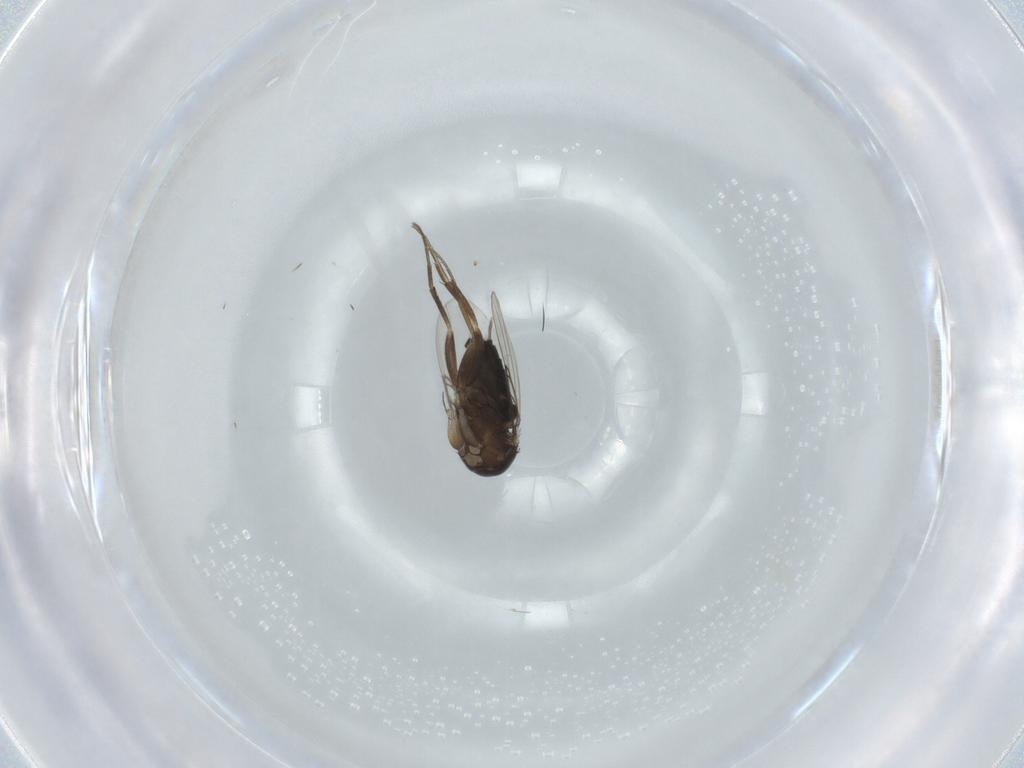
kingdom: Animalia
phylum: Arthropoda
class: Insecta
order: Diptera
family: Phoridae
